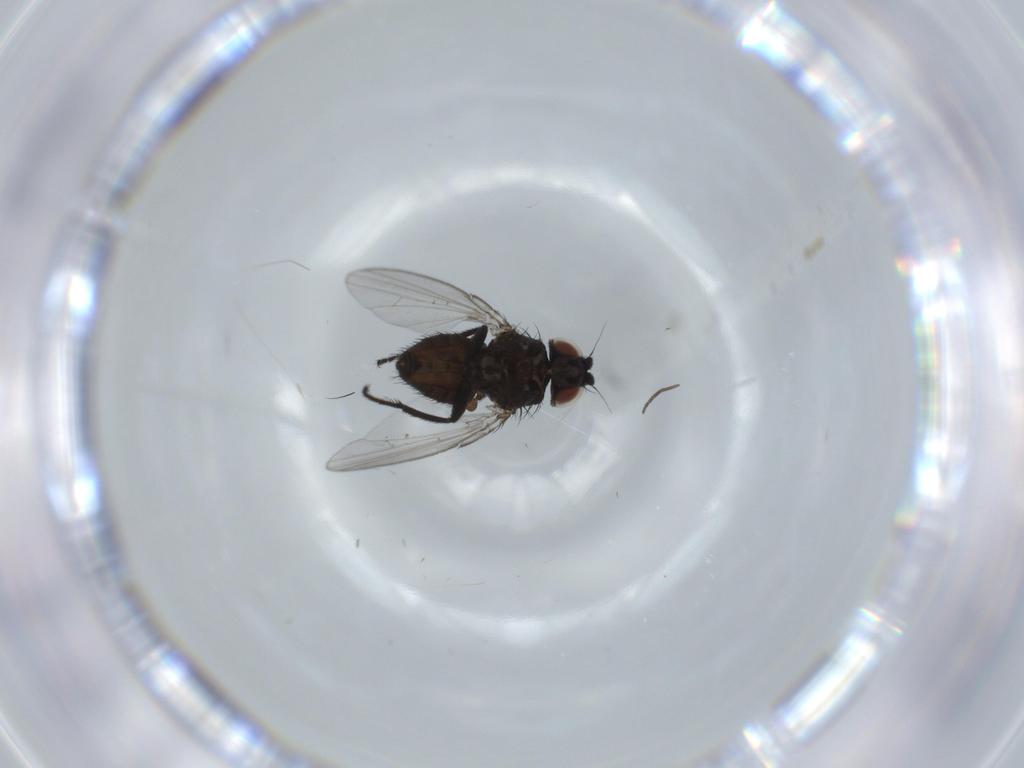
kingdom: Animalia
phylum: Arthropoda
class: Insecta
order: Diptera
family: Milichiidae
